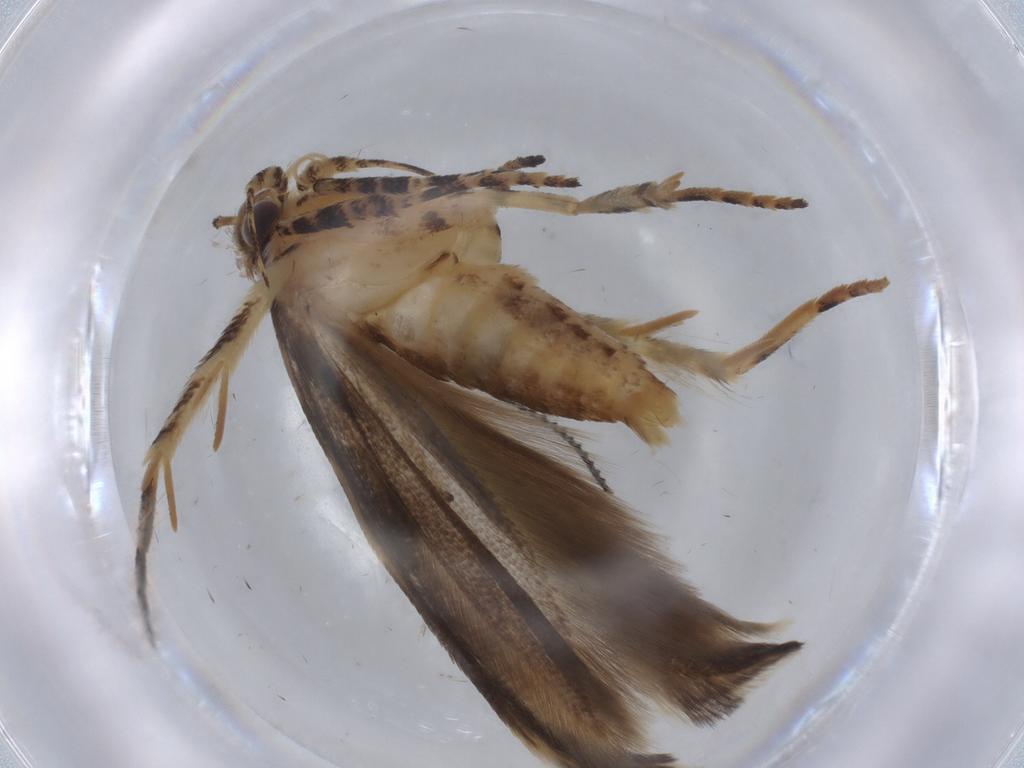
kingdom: Animalia
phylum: Arthropoda
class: Insecta
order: Lepidoptera
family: Gelechiidae
